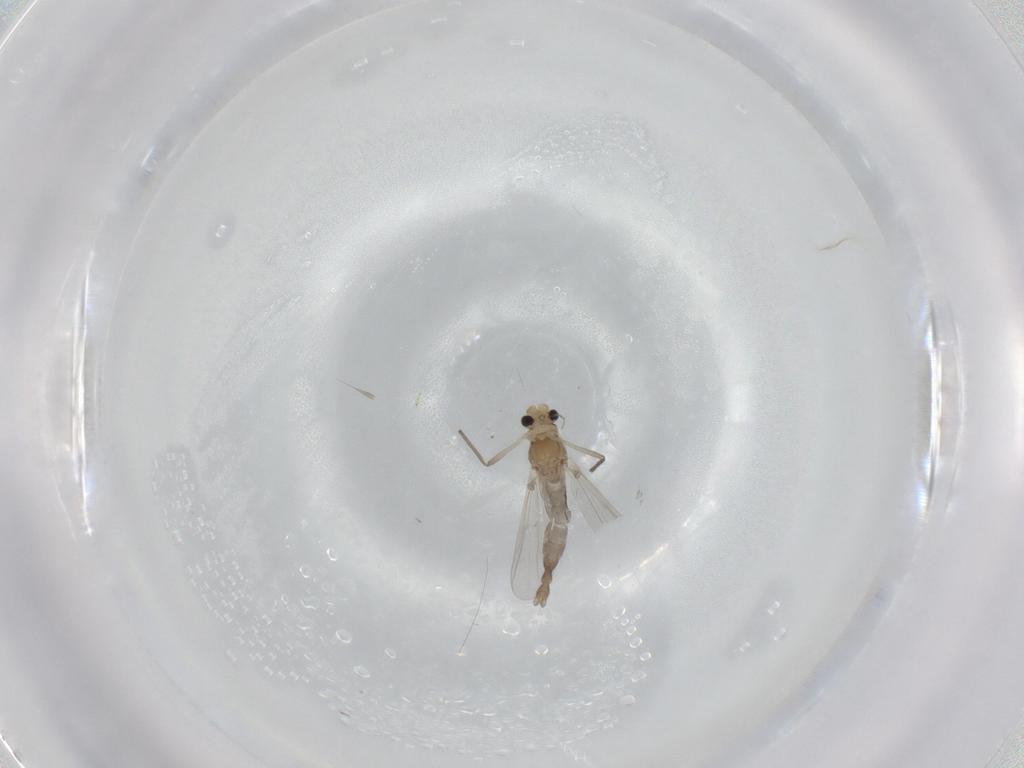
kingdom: Animalia
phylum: Arthropoda
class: Insecta
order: Diptera
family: Chironomidae
